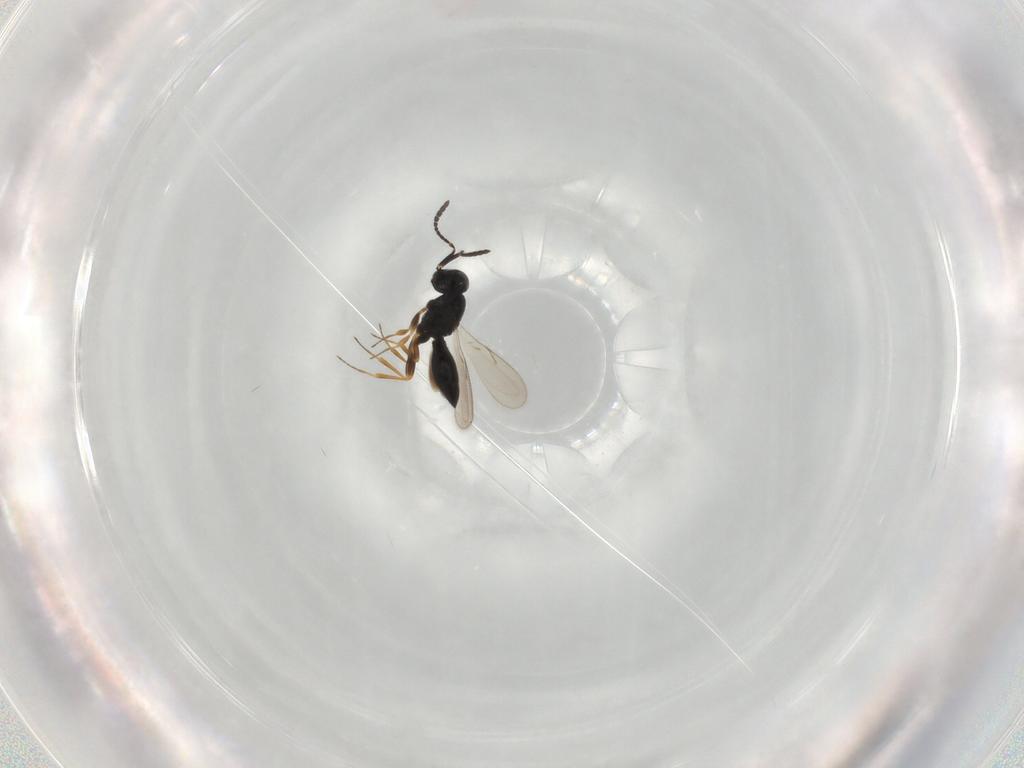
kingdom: Animalia
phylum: Arthropoda
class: Insecta
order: Hymenoptera
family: Scelionidae
